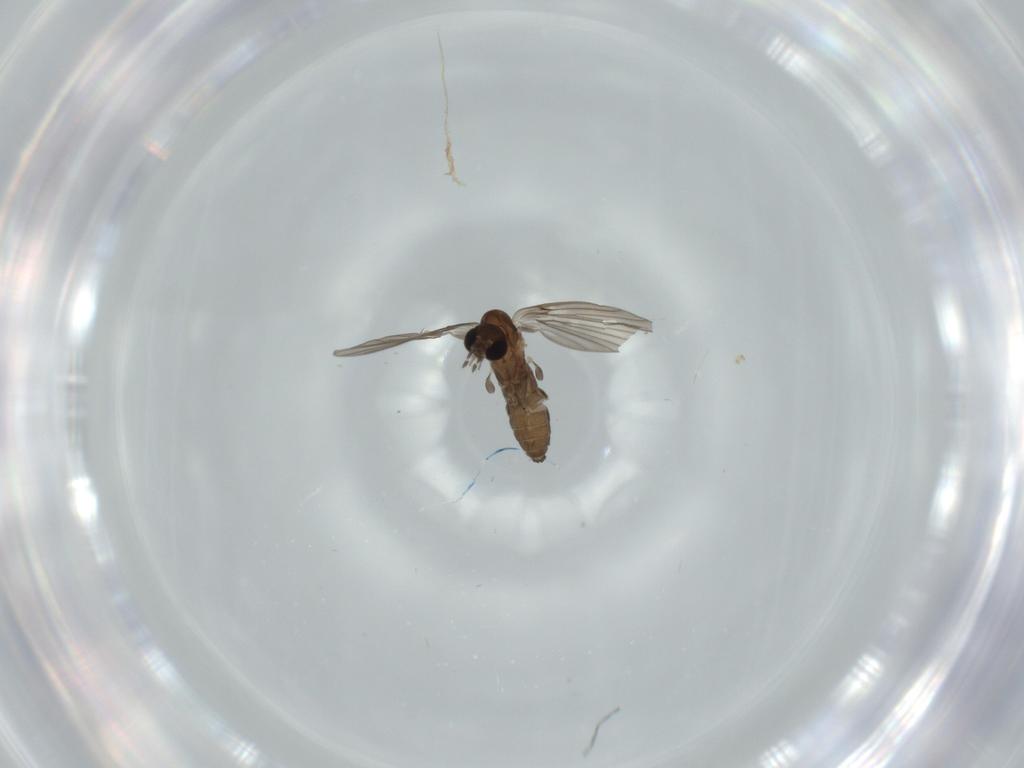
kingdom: Animalia
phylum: Arthropoda
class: Insecta
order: Diptera
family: Psychodidae
